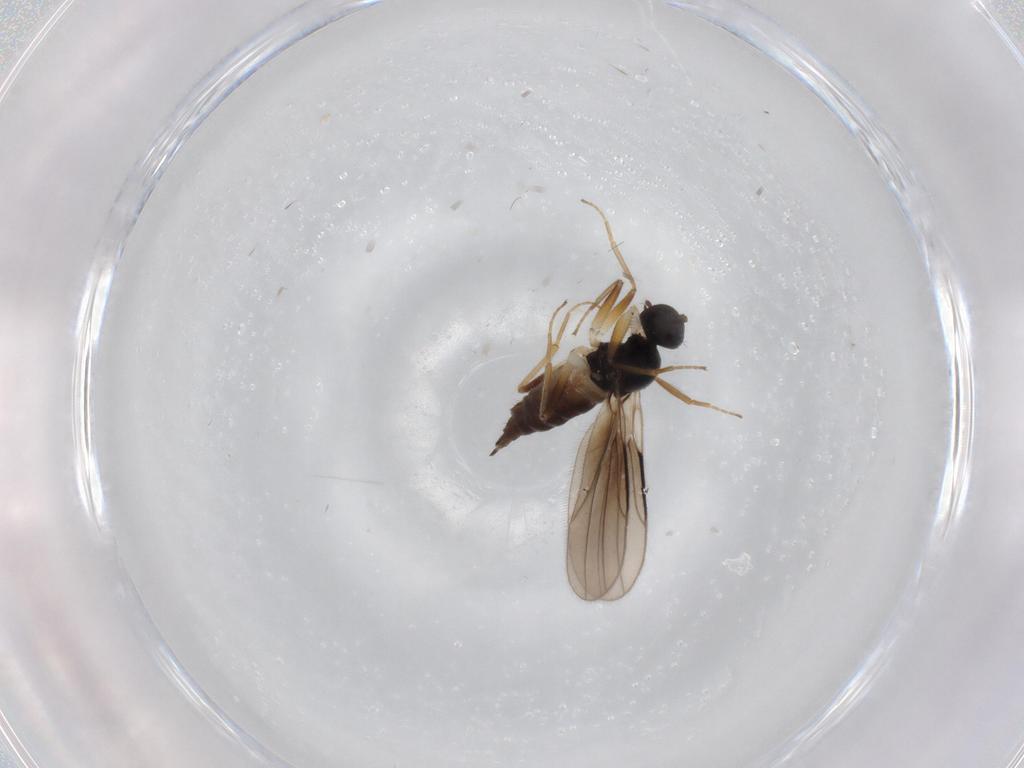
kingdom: Animalia
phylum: Arthropoda
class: Insecta
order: Diptera
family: Hybotidae
